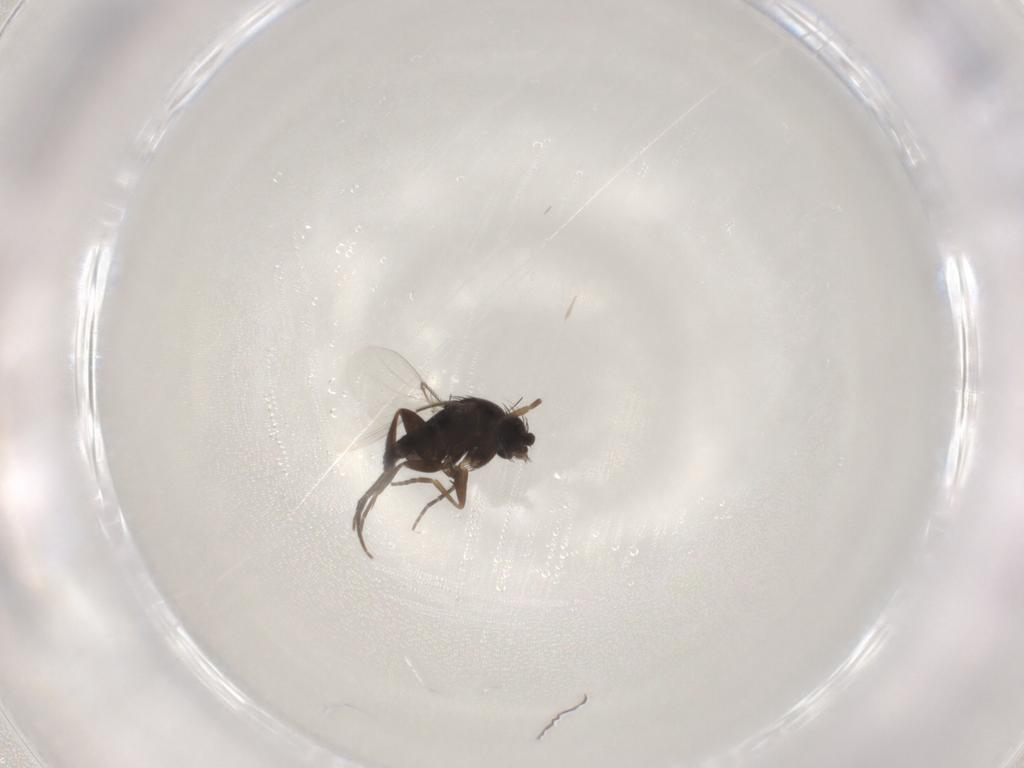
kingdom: Animalia
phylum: Arthropoda
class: Insecta
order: Diptera
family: Phoridae
